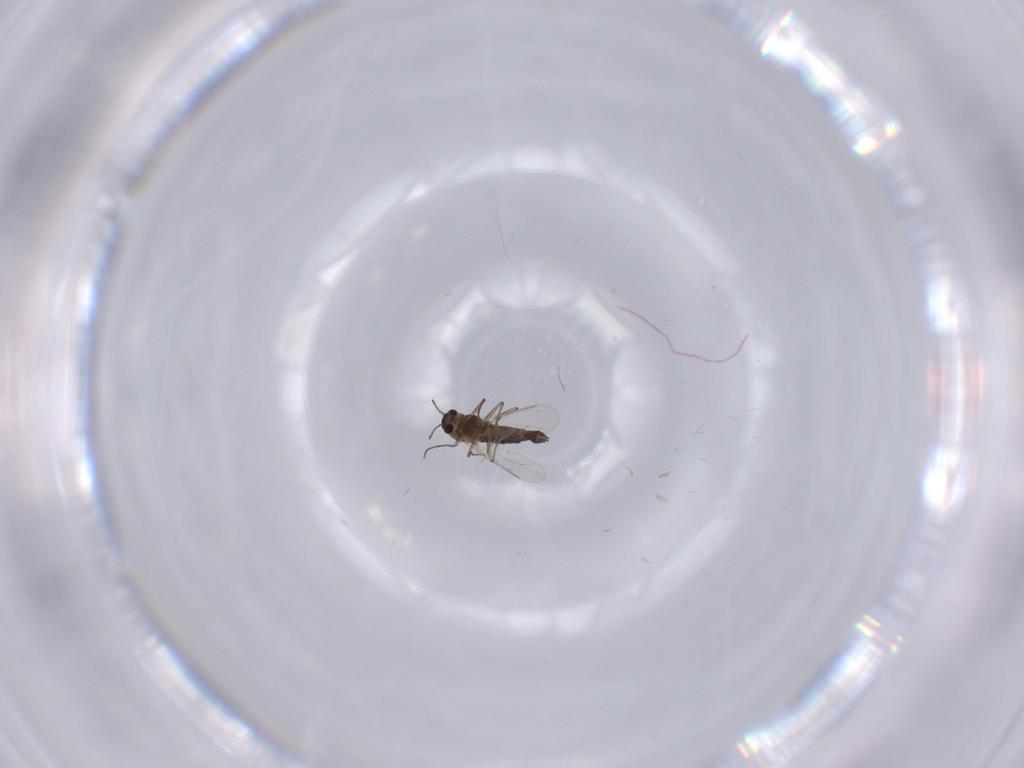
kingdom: Animalia
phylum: Arthropoda
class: Insecta
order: Diptera
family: Chironomidae
